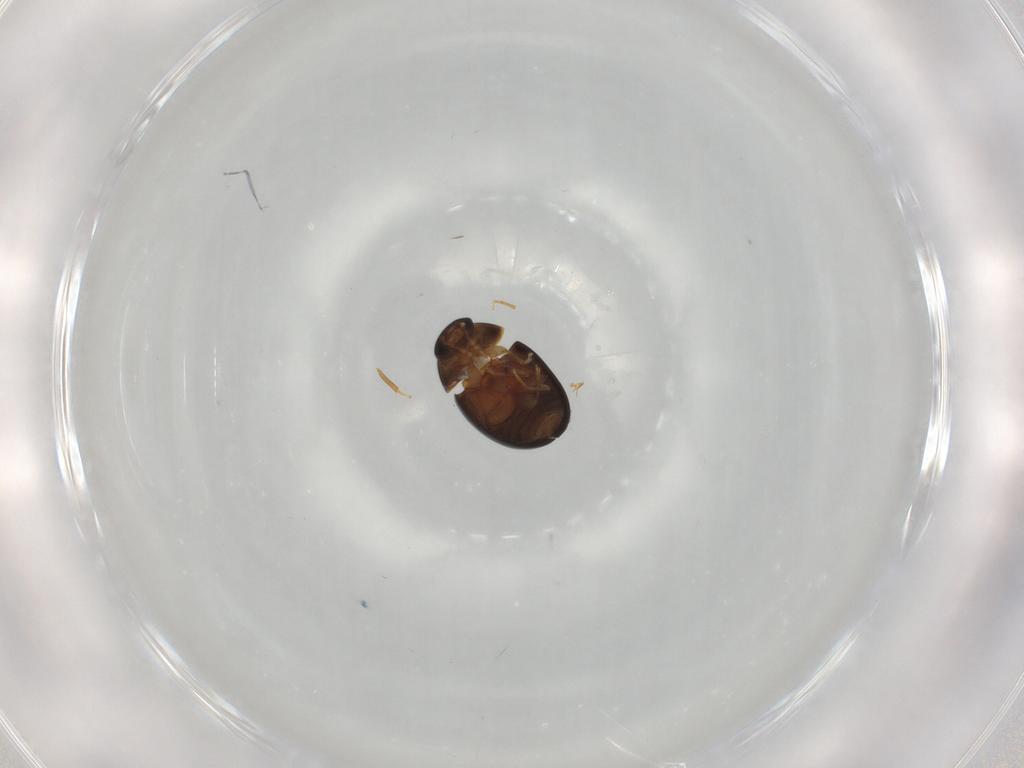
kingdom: Animalia
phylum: Arthropoda
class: Insecta
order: Coleoptera
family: Phalacridae
